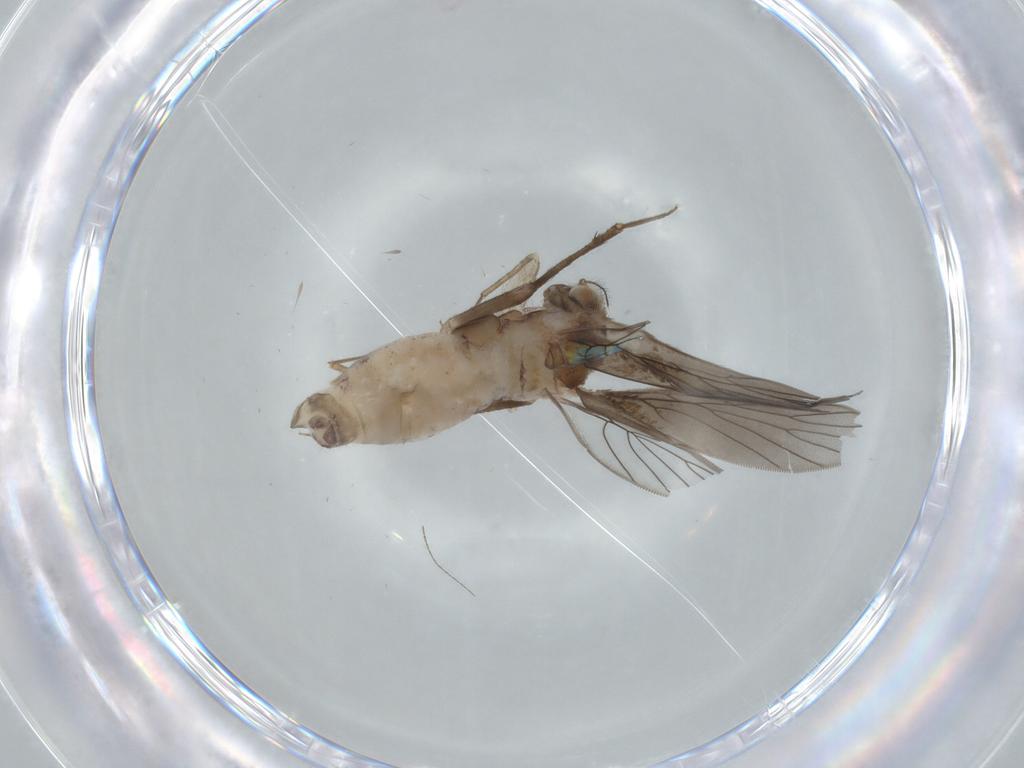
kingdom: Animalia
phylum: Arthropoda
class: Insecta
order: Psocodea
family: Lepidopsocidae
